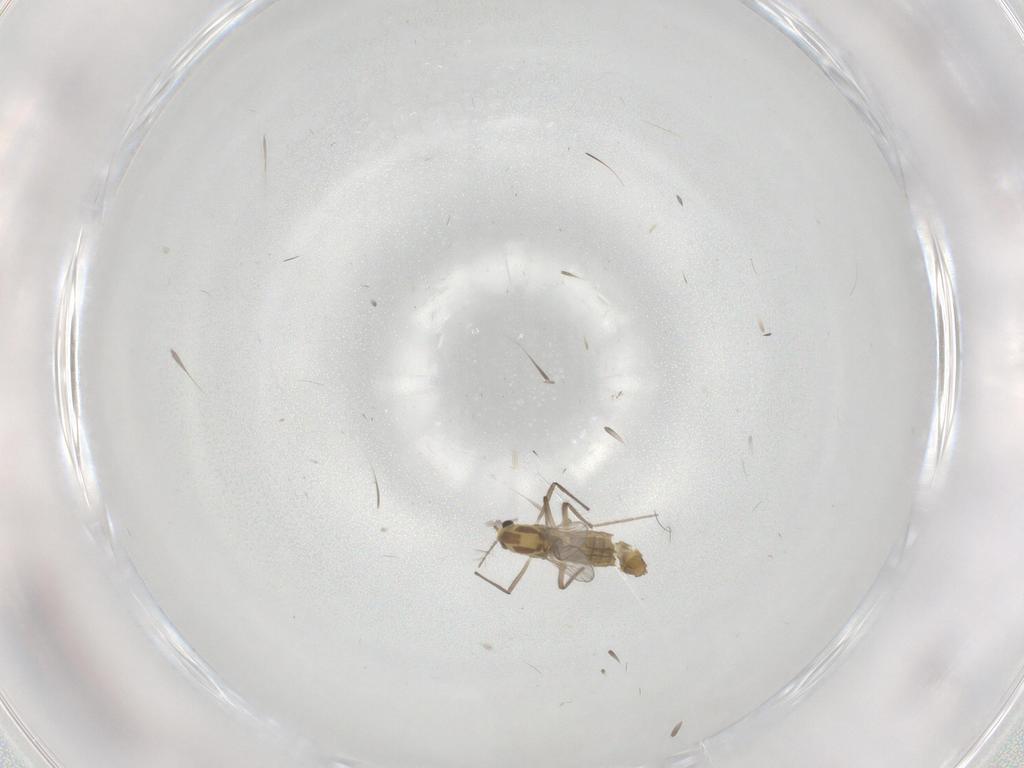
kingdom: Animalia
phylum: Arthropoda
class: Insecta
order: Diptera
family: Chironomidae
